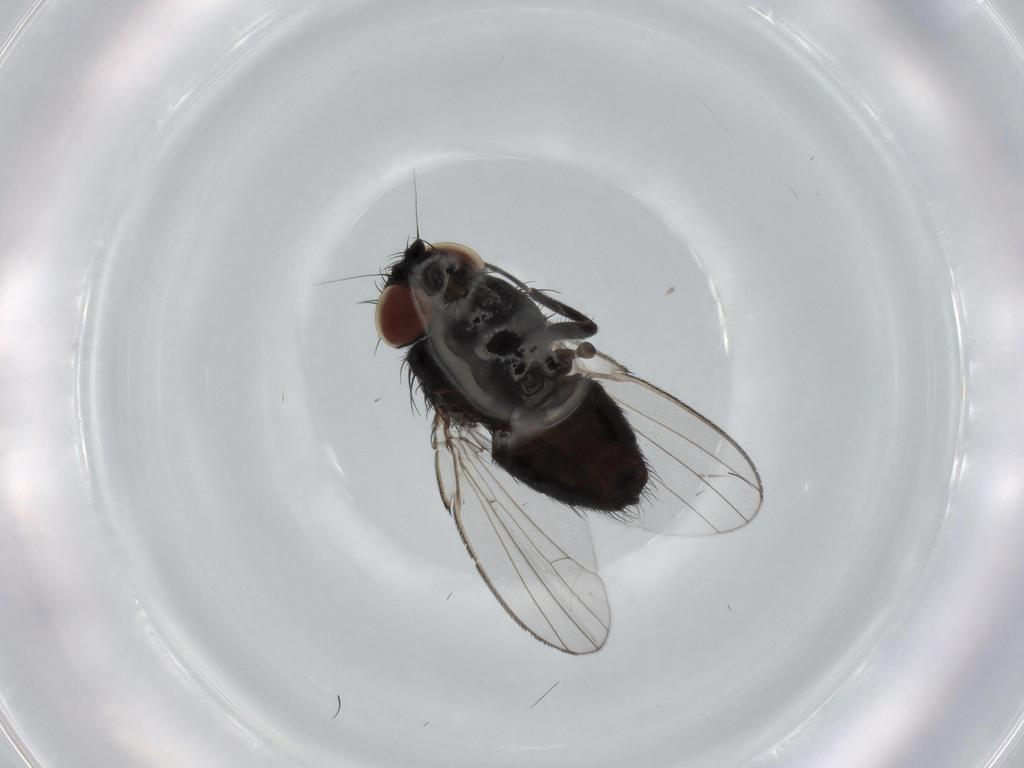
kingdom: Animalia
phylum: Arthropoda
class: Insecta
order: Diptera
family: Milichiidae
